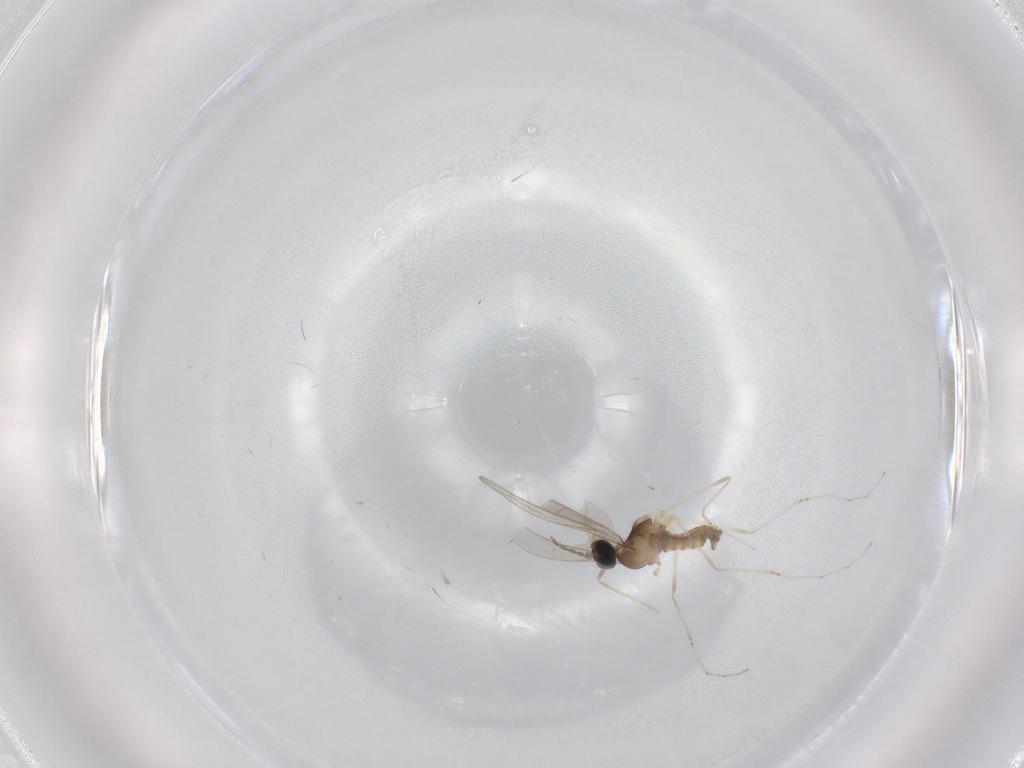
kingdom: Animalia
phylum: Arthropoda
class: Insecta
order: Diptera
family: Cecidomyiidae
